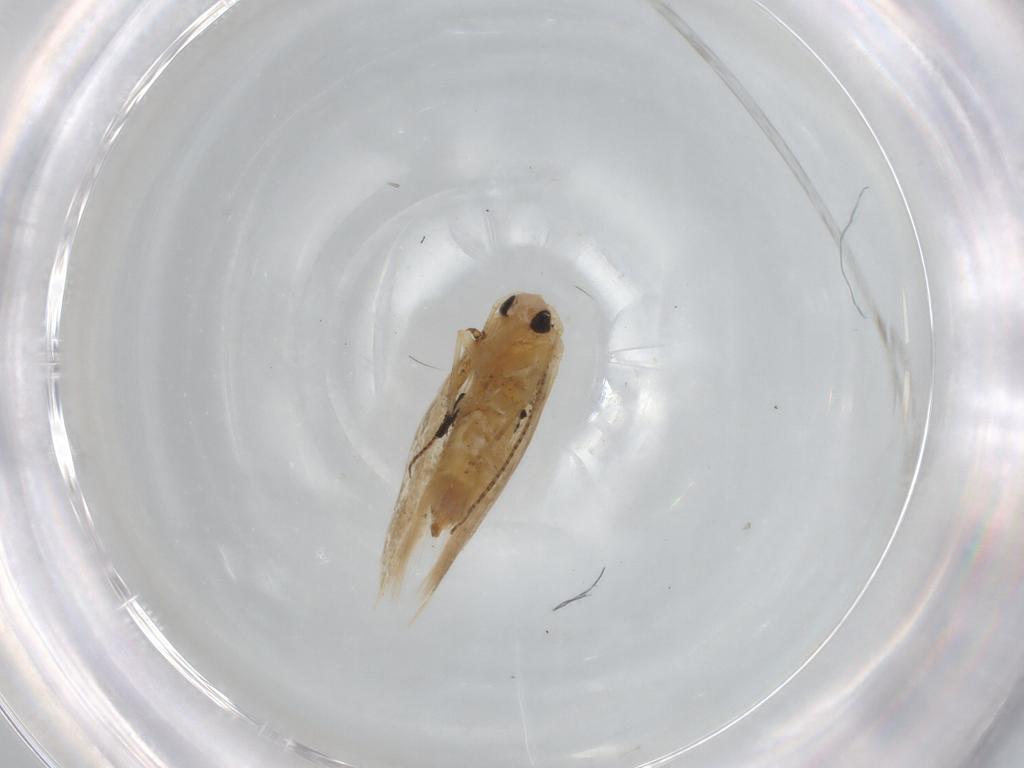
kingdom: Animalia
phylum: Arthropoda
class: Insecta
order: Lepidoptera
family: Bucculatricidae
